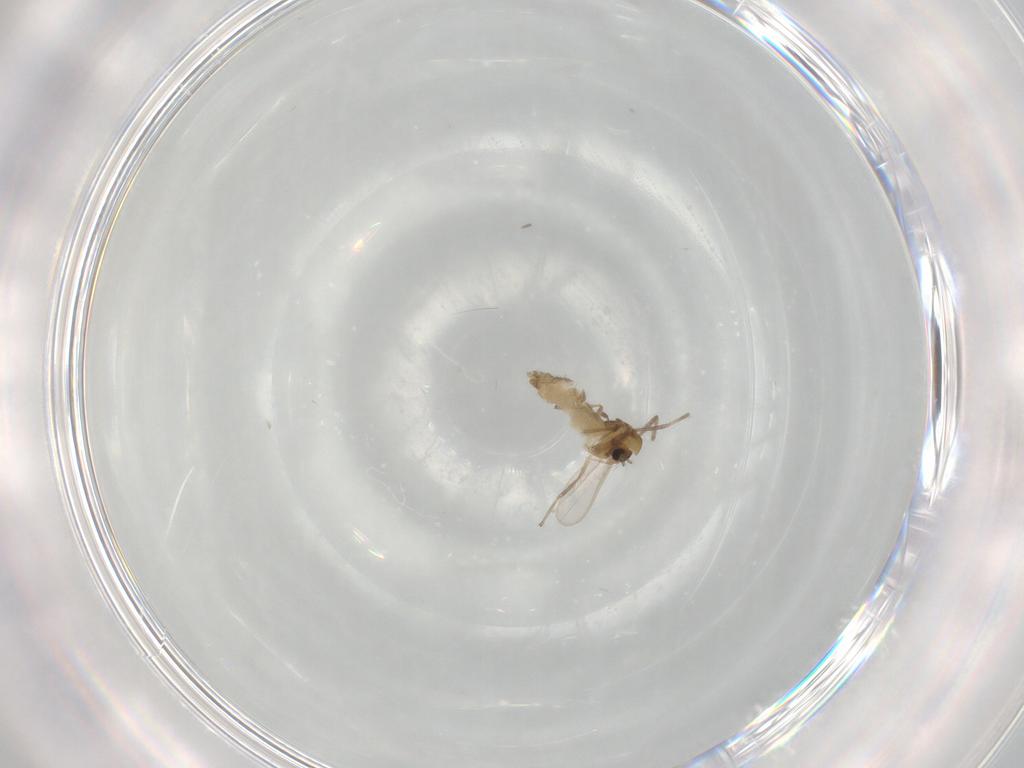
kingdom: Animalia
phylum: Arthropoda
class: Insecta
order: Diptera
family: Chironomidae
